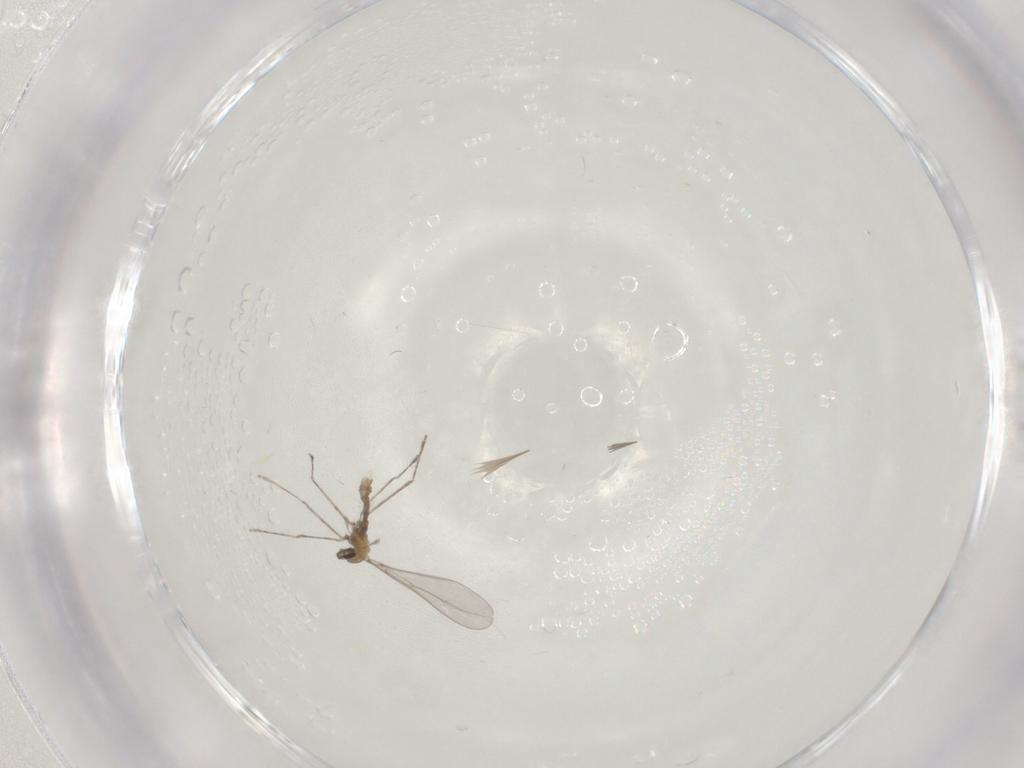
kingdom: Animalia
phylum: Arthropoda
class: Insecta
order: Diptera
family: Cecidomyiidae
